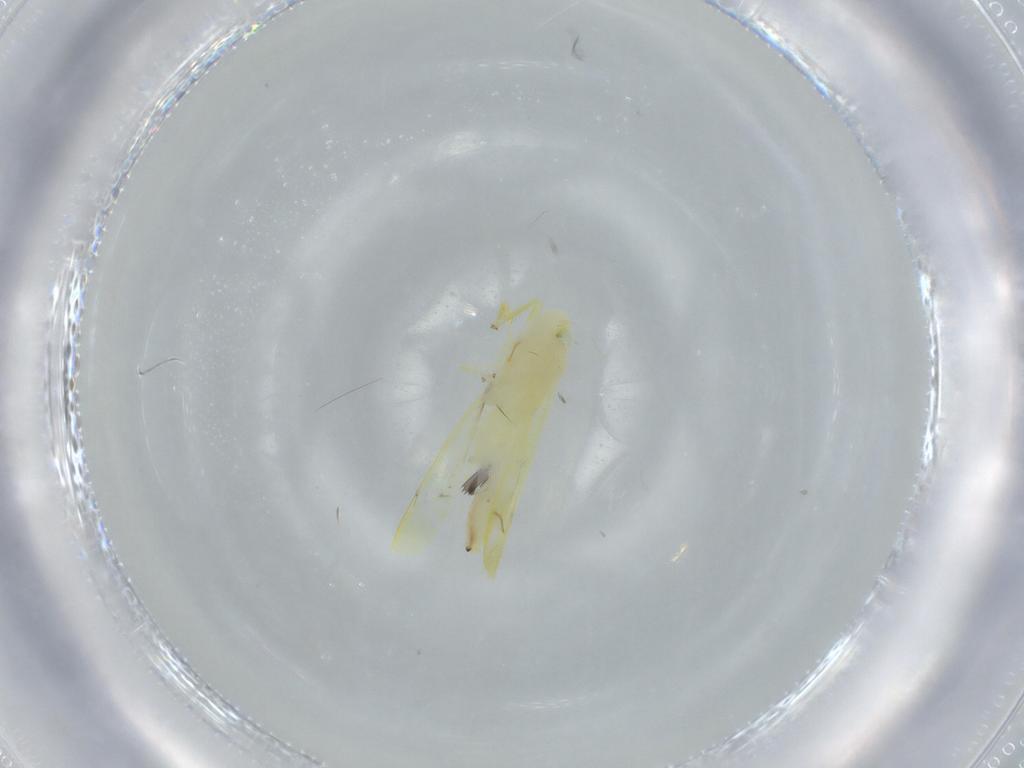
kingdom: Animalia
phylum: Arthropoda
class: Insecta
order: Hemiptera
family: Cicadellidae
